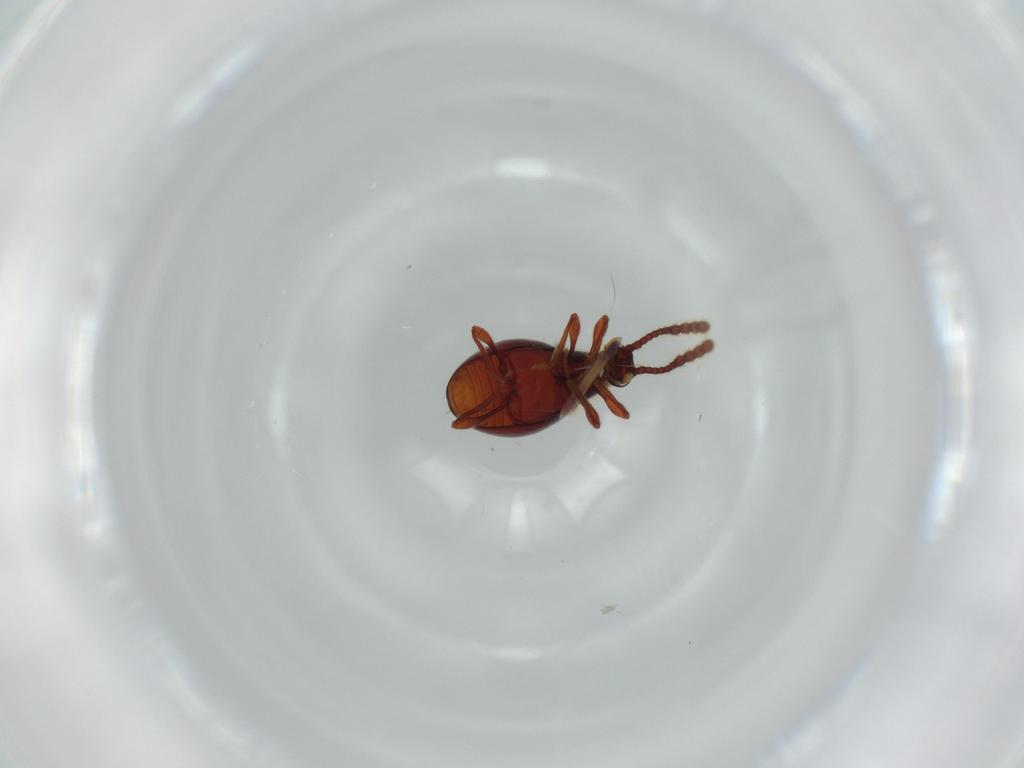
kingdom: Animalia
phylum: Arthropoda
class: Insecta
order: Coleoptera
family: Staphylinidae
